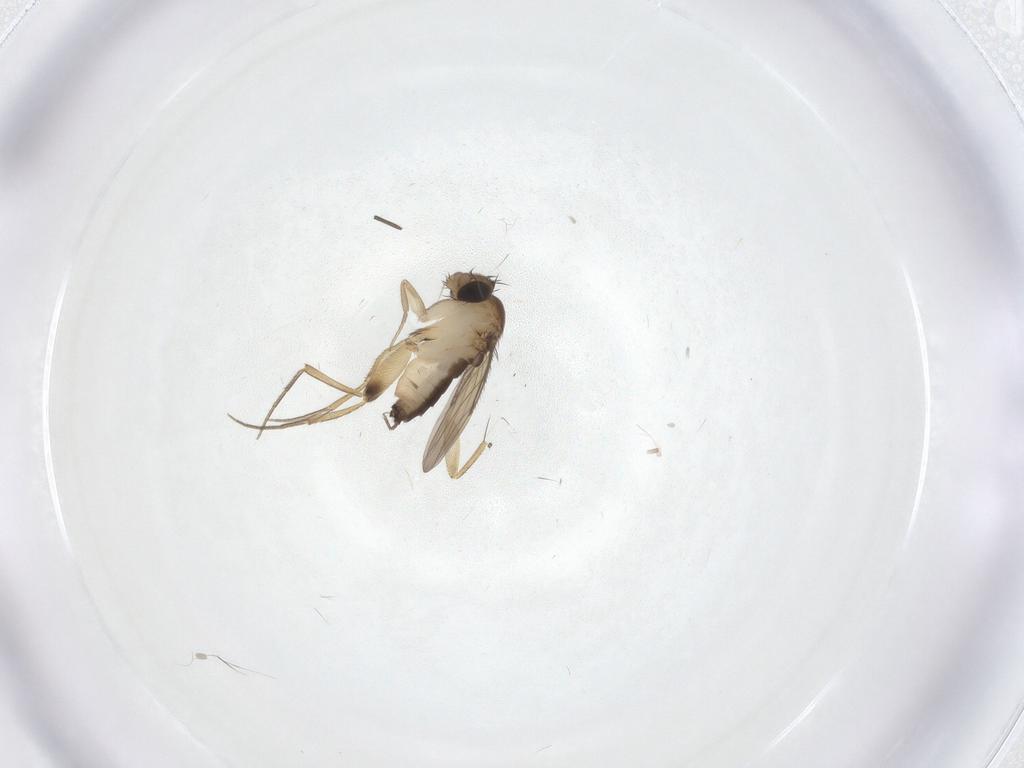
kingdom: Animalia
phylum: Arthropoda
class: Insecta
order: Diptera
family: Phoridae
